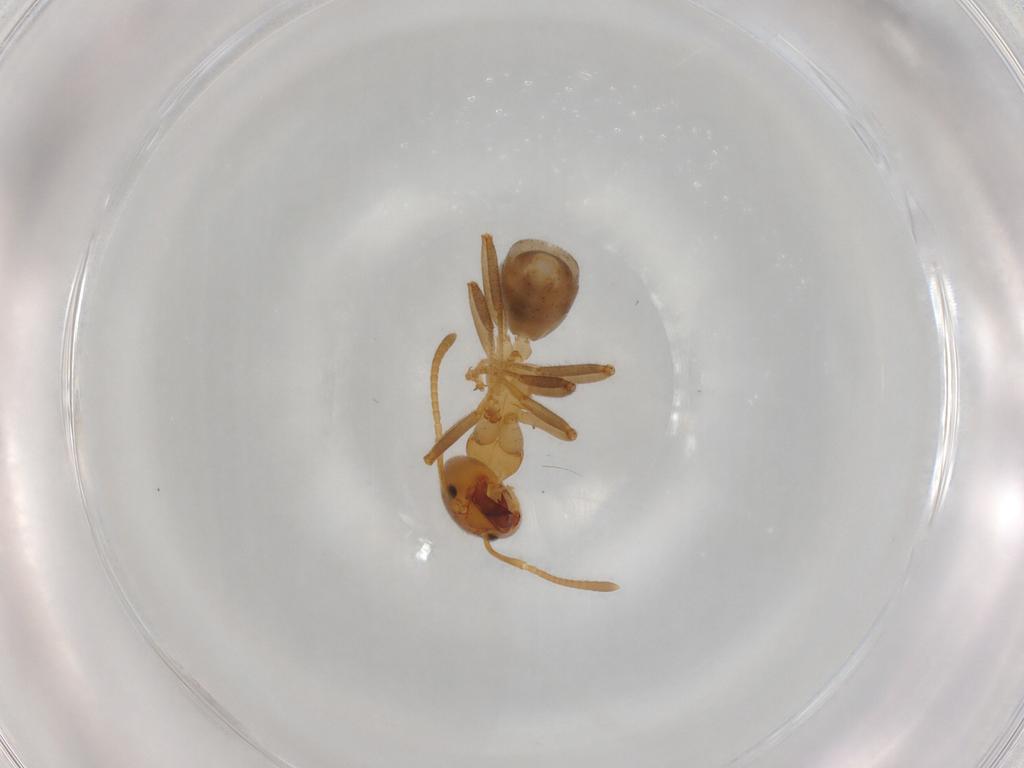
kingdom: Animalia
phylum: Arthropoda
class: Insecta
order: Hymenoptera
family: Formicidae
